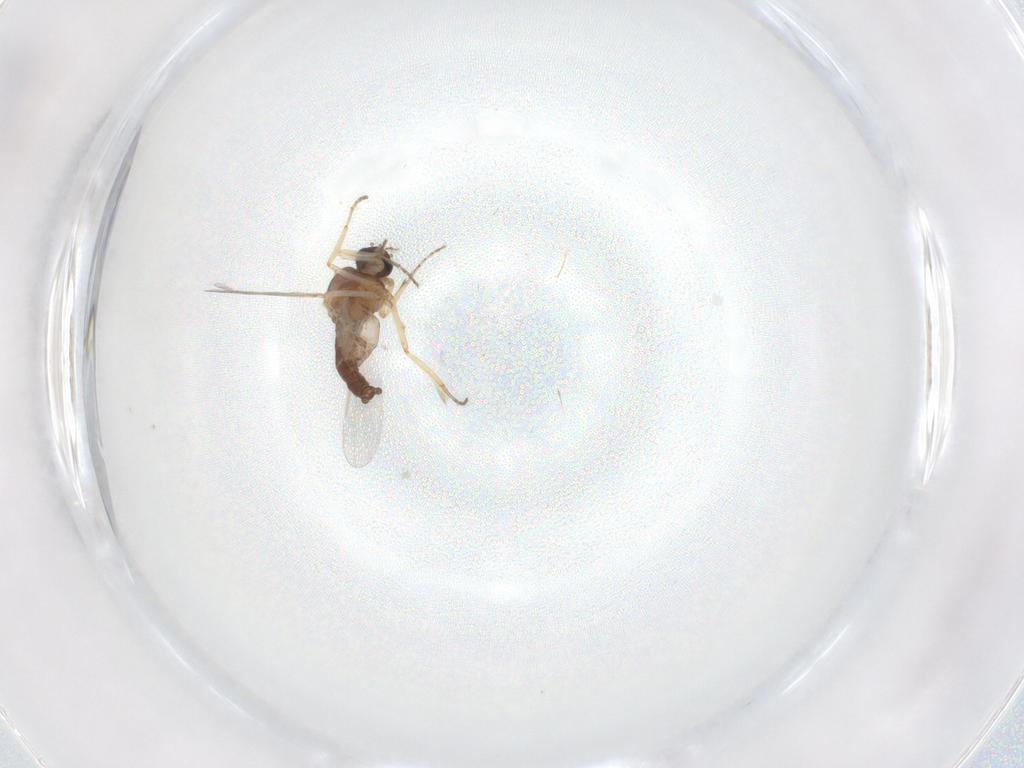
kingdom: Animalia
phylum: Arthropoda
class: Insecta
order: Diptera
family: Ceratopogonidae
